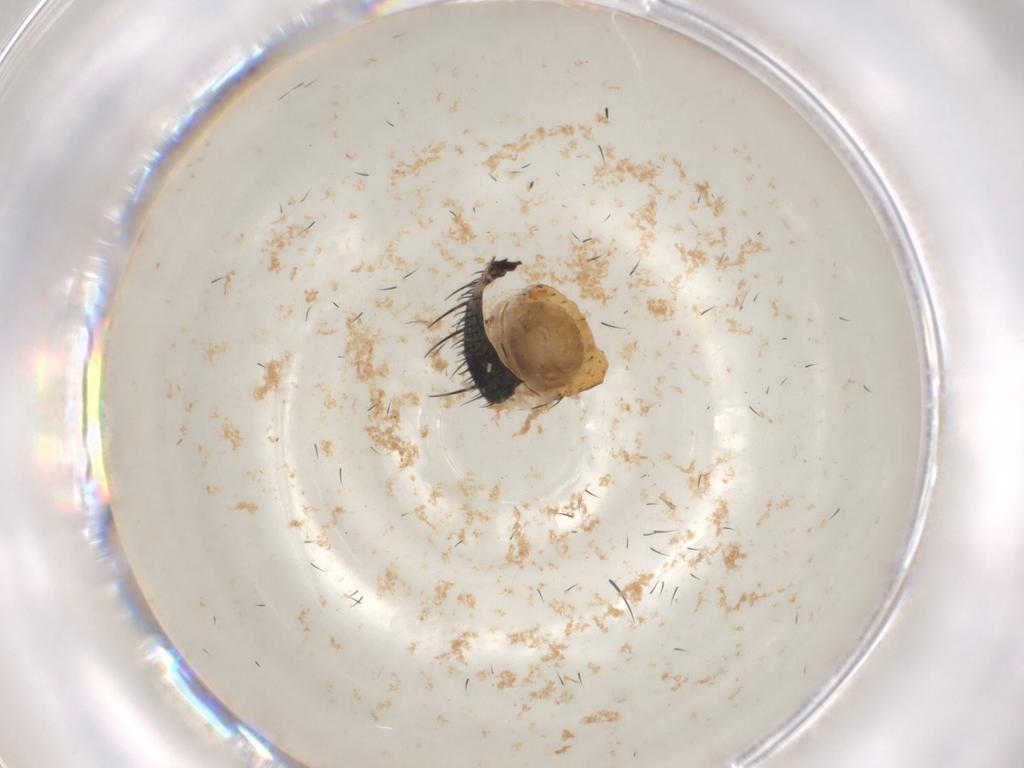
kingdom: Animalia
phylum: Arthropoda
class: Insecta
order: Diptera
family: Calliphoridae
